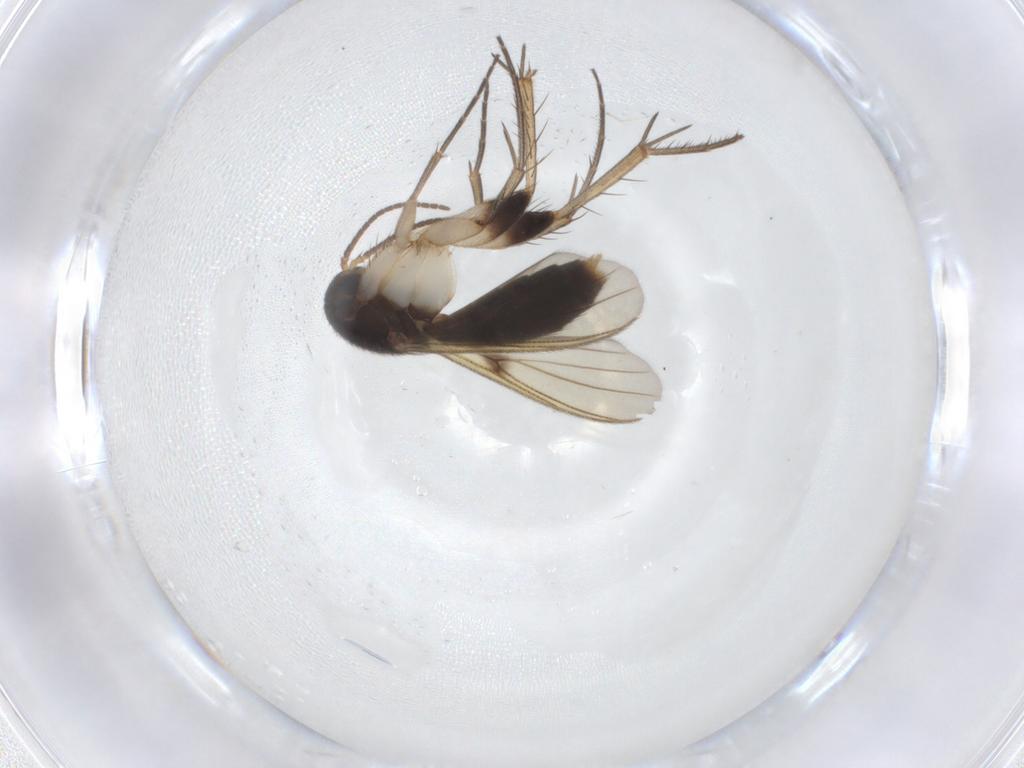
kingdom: Animalia
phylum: Arthropoda
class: Insecta
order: Diptera
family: Mycetophilidae
